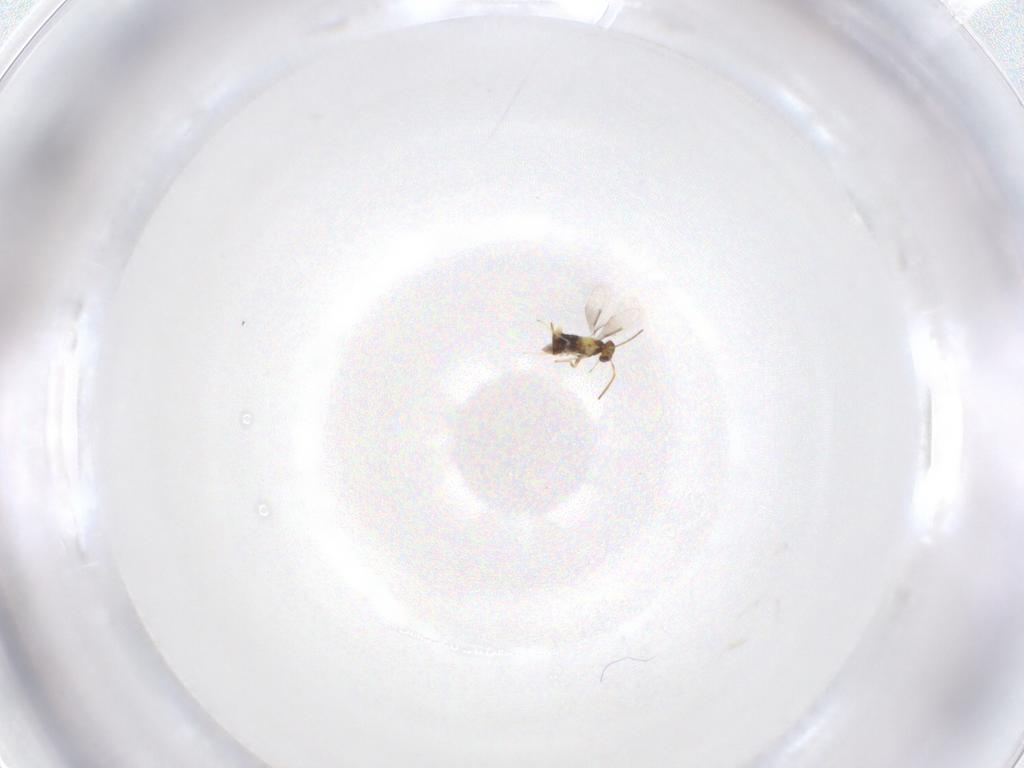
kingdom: Animalia
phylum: Arthropoda
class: Insecta
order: Hymenoptera
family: Aphelinidae
